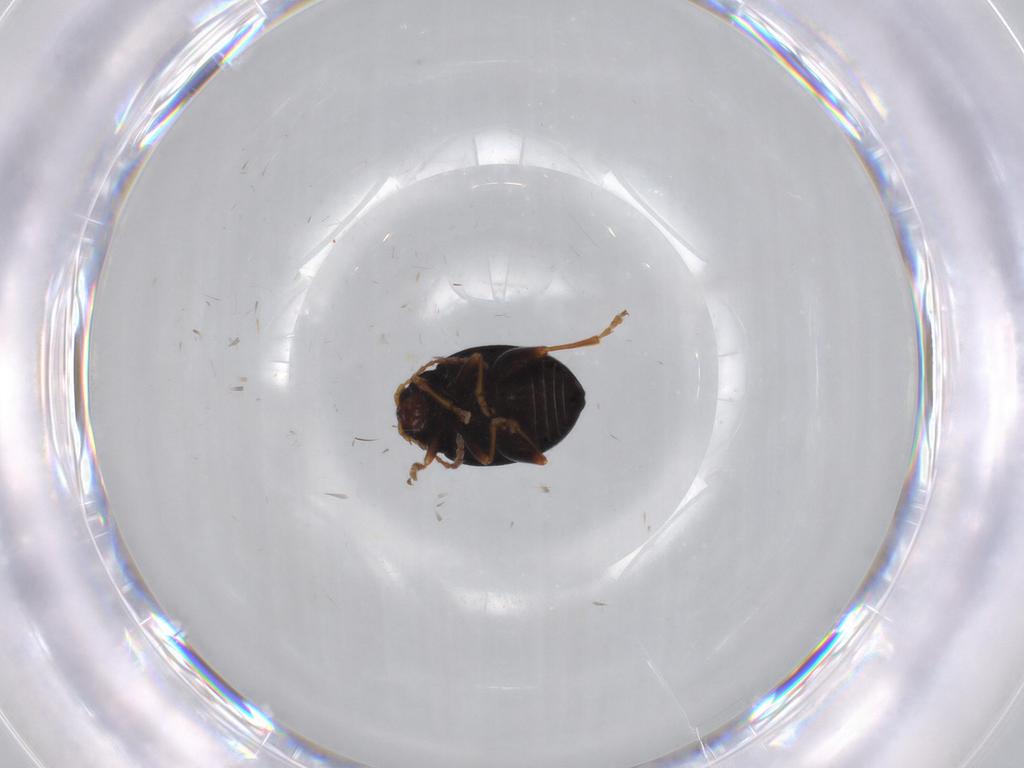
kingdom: Animalia
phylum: Arthropoda
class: Insecta
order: Coleoptera
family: Chrysomelidae
